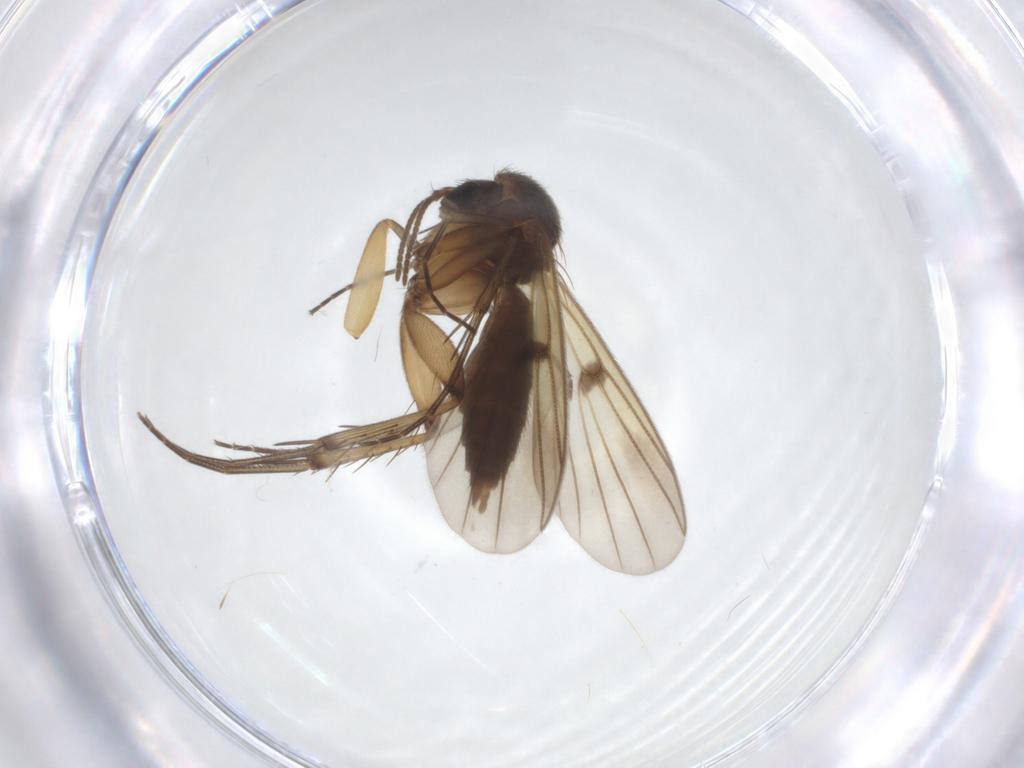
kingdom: Animalia
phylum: Arthropoda
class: Insecta
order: Diptera
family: Mycetophilidae
